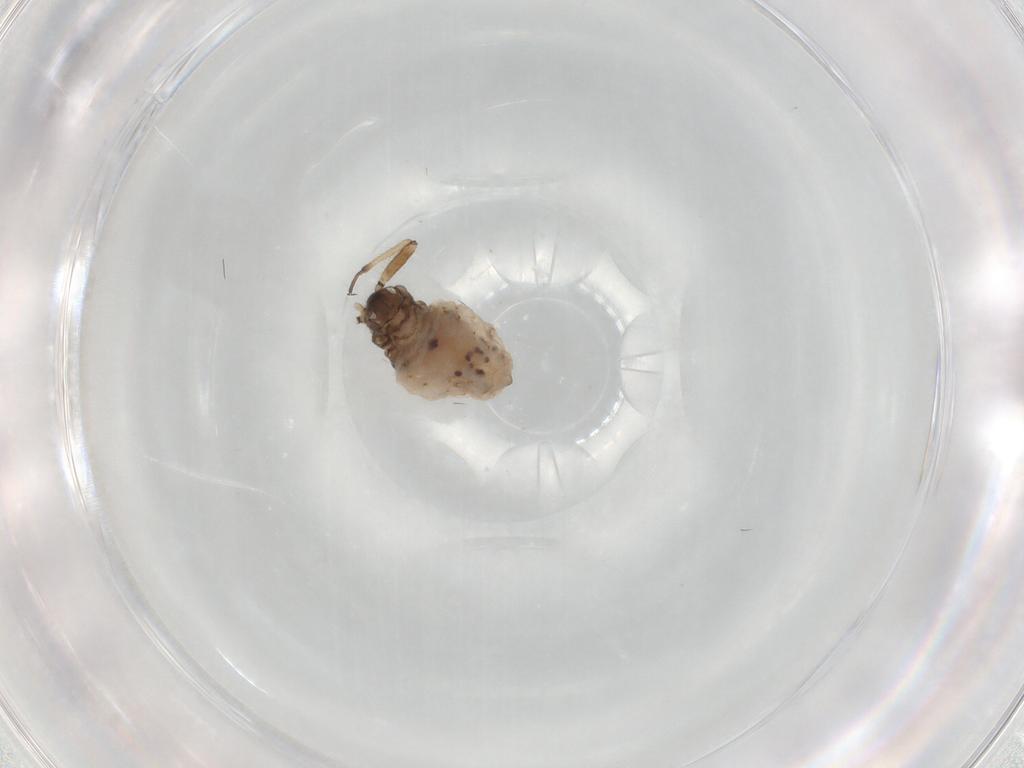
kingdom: Animalia
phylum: Arthropoda
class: Insecta
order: Hemiptera
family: Aphididae
